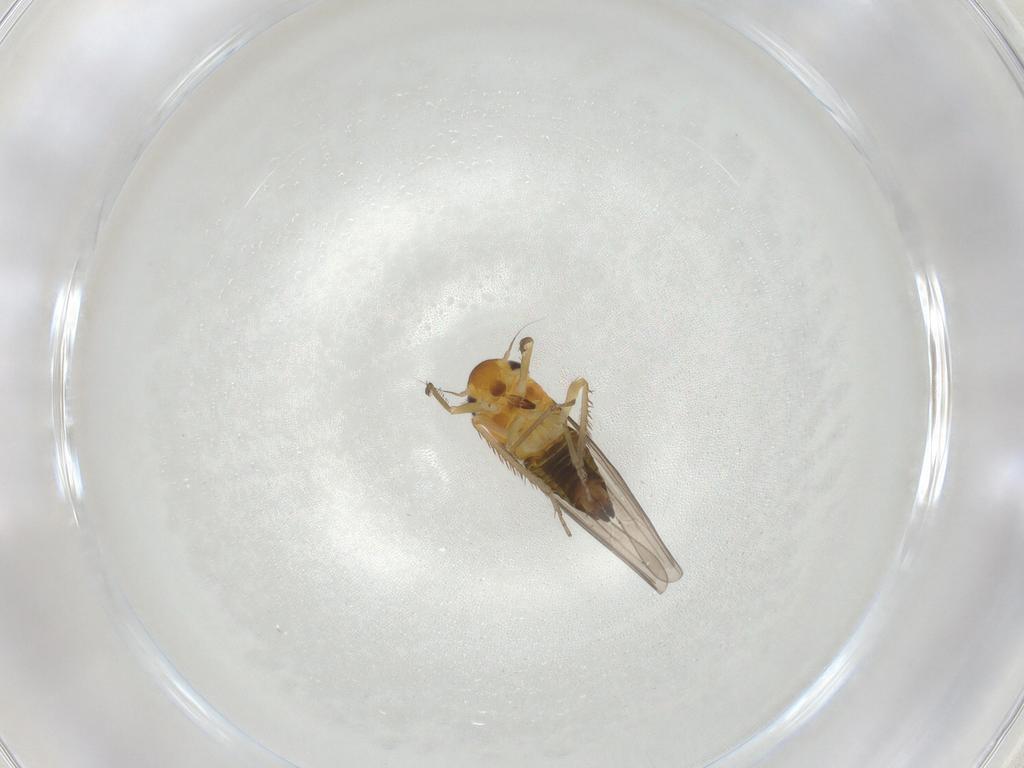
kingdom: Animalia
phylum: Arthropoda
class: Insecta
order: Hemiptera
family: Cicadellidae
